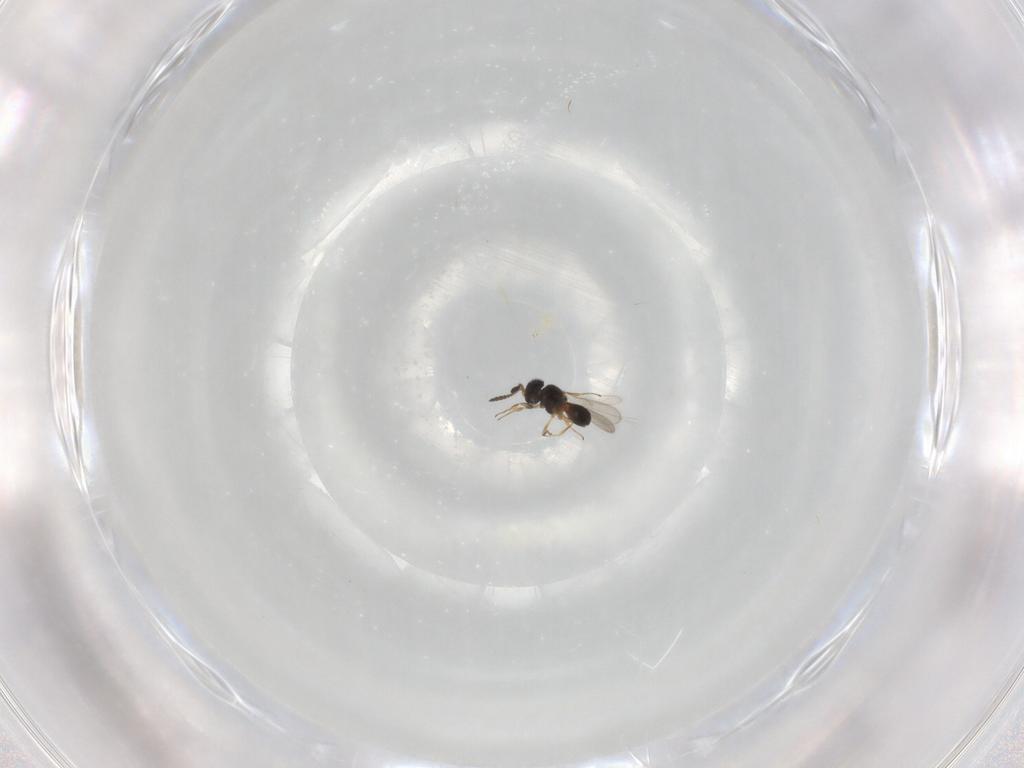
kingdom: Animalia
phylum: Arthropoda
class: Insecta
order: Hymenoptera
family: Scelionidae
